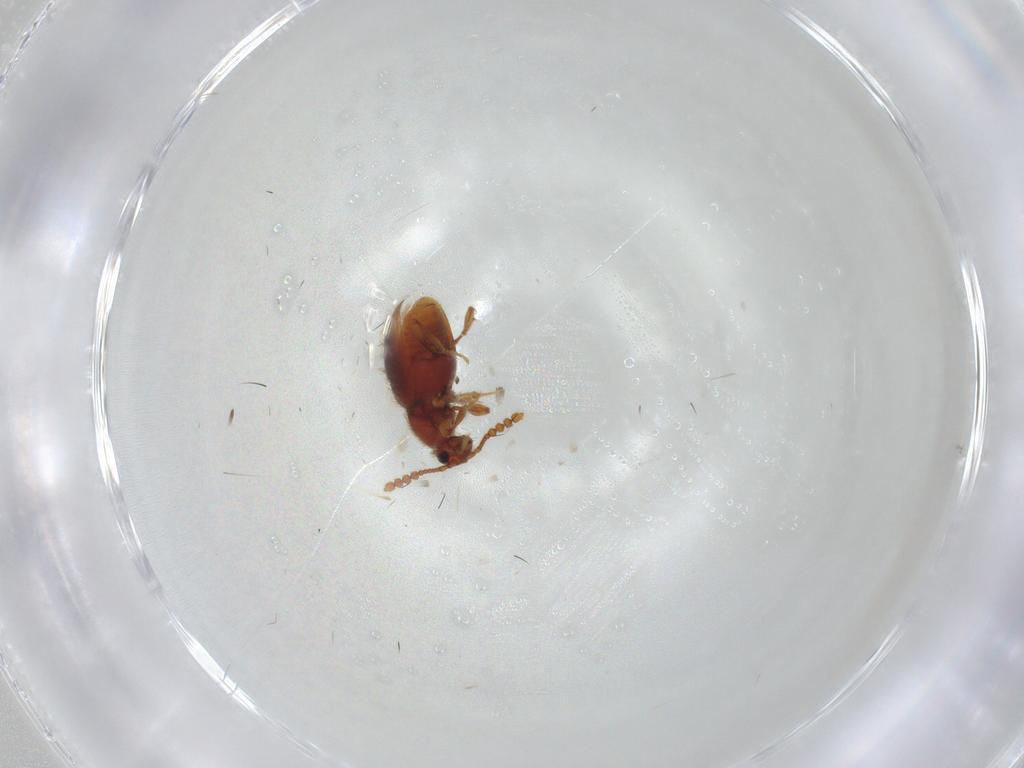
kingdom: Animalia
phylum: Arthropoda
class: Insecta
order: Coleoptera
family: Staphylinidae
